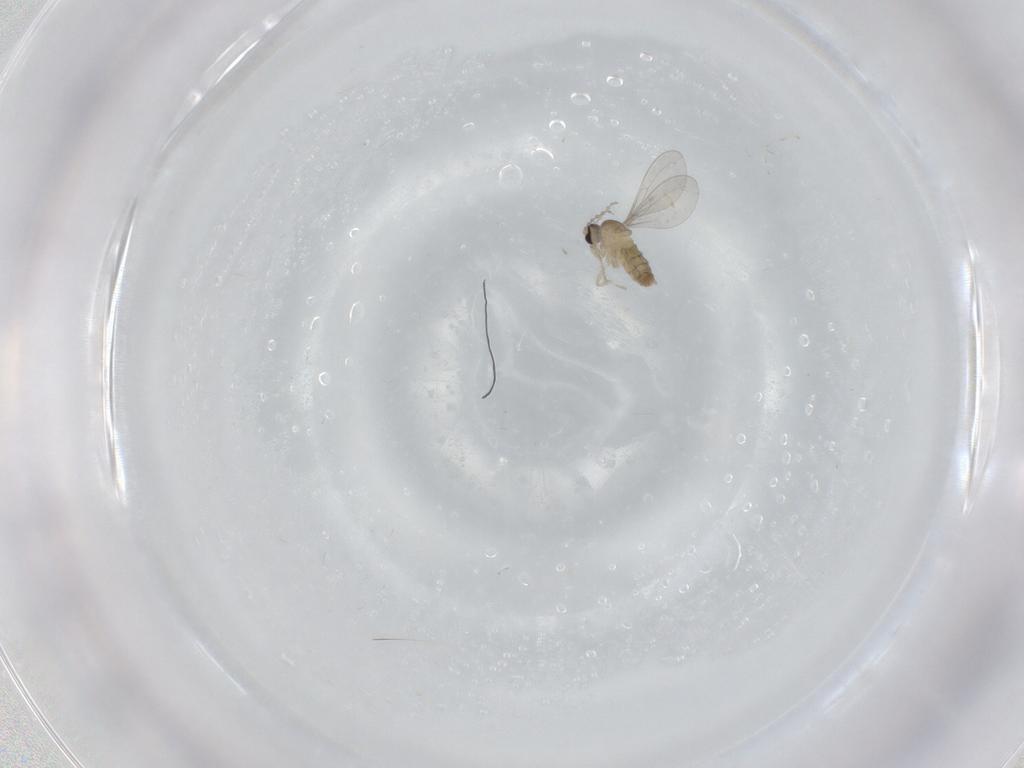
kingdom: Animalia
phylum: Arthropoda
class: Insecta
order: Diptera
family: Cecidomyiidae
